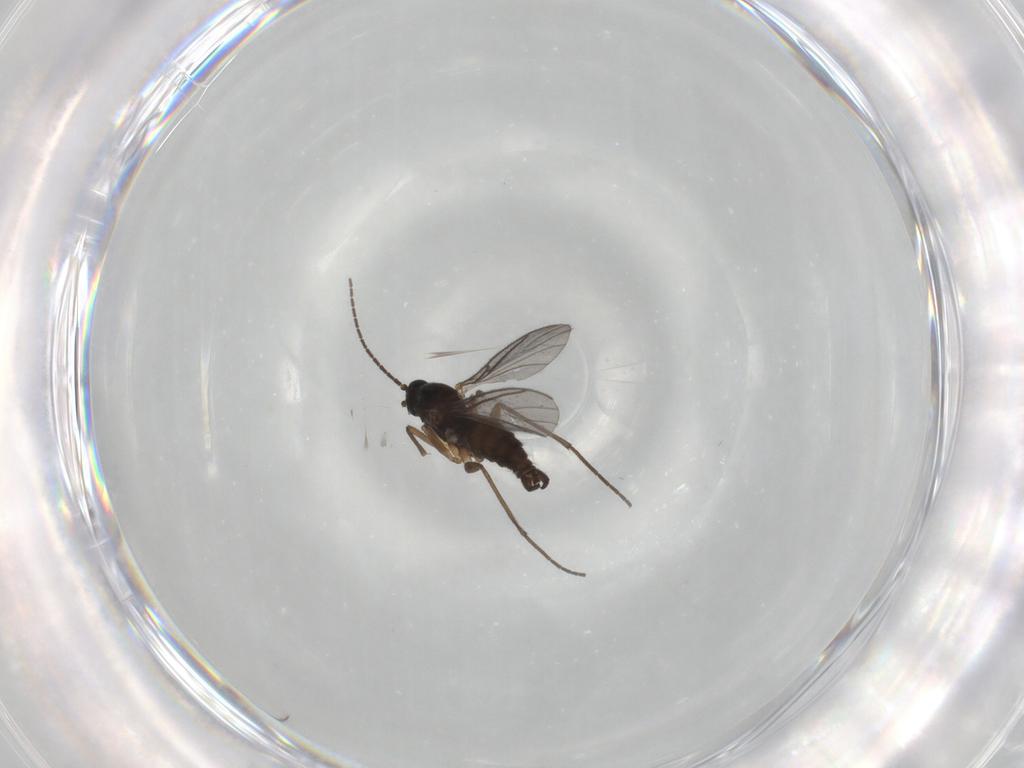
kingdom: Animalia
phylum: Arthropoda
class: Insecta
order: Diptera
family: Sciaridae
